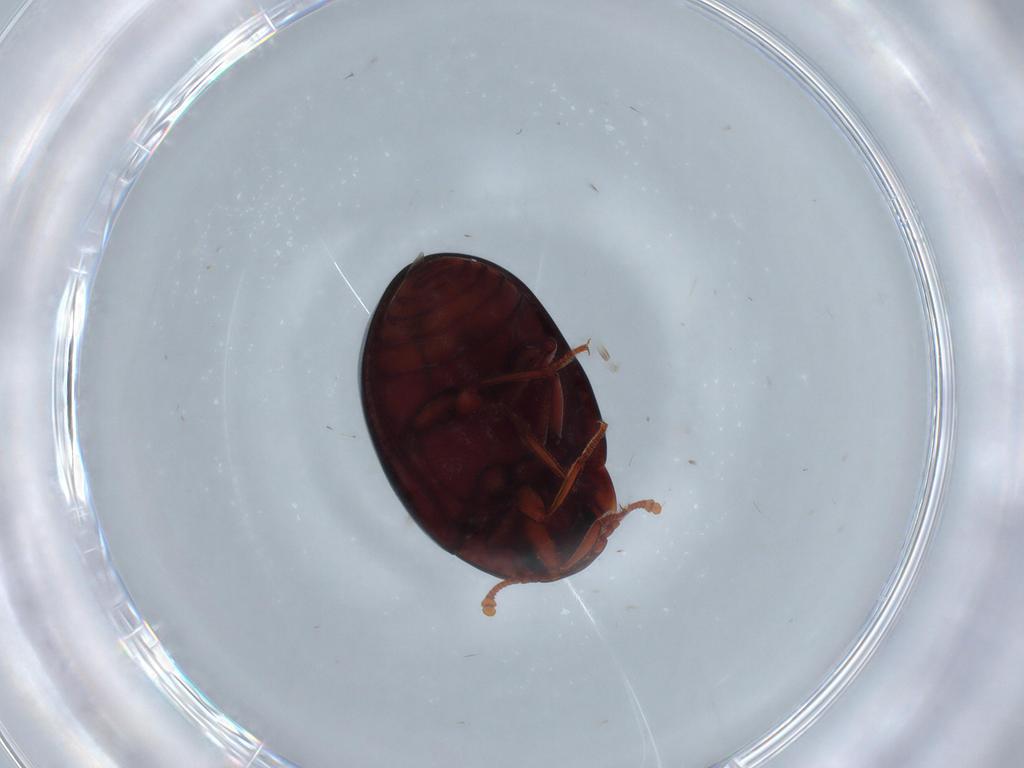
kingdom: Animalia
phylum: Arthropoda
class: Insecta
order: Coleoptera
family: Zopheridae
